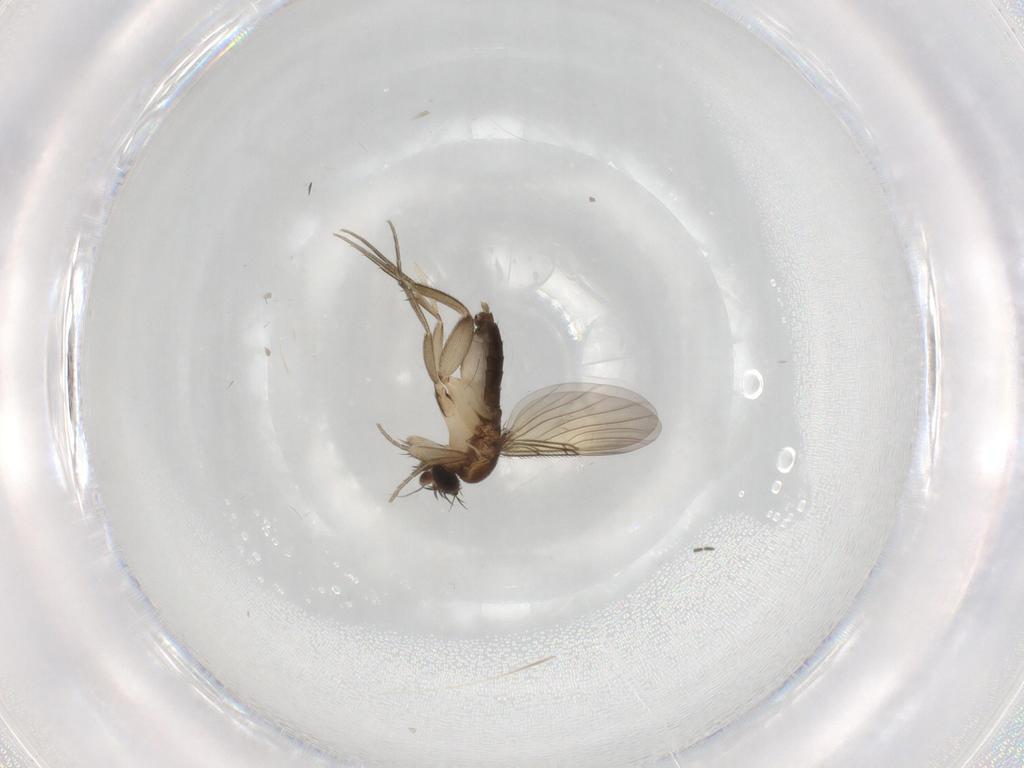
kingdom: Animalia
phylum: Arthropoda
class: Insecta
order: Diptera
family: Phoridae
